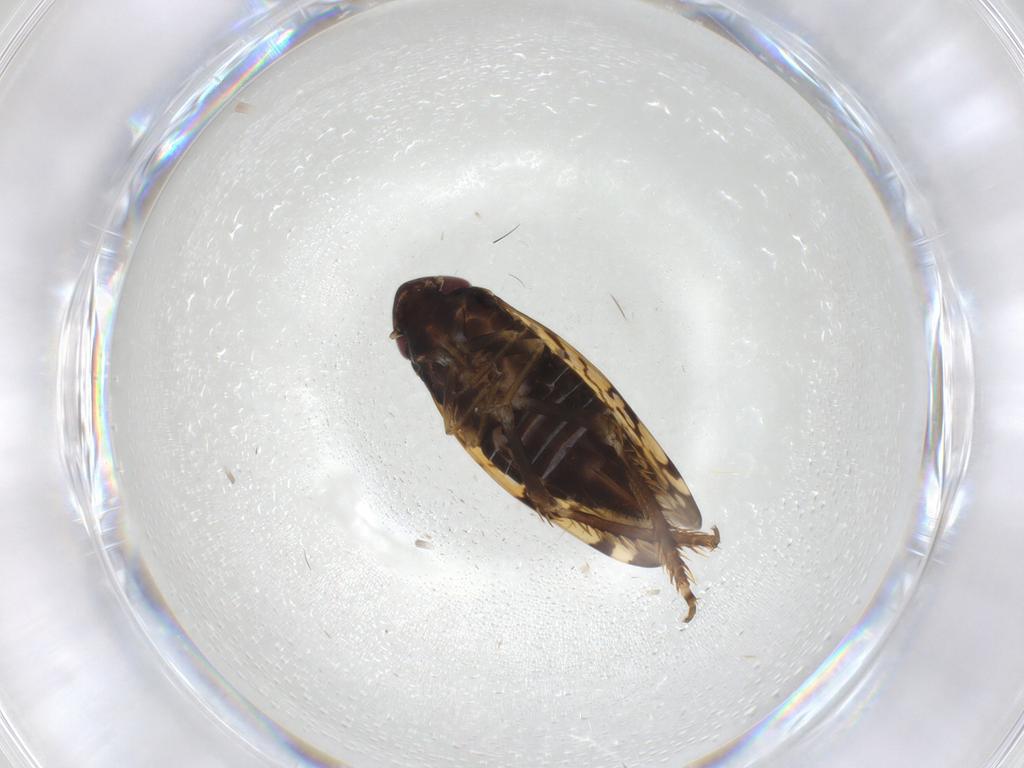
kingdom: Animalia
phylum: Arthropoda
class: Insecta
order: Hemiptera
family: Cicadellidae
